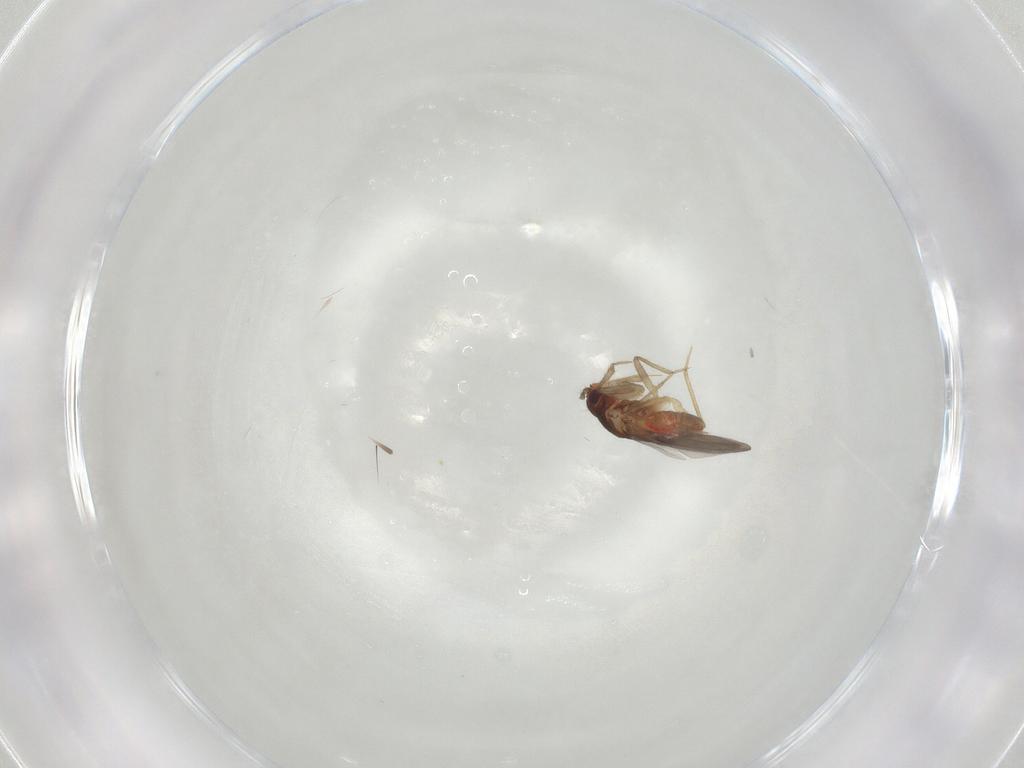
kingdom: Animalia
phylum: Arthropoda
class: Insecta
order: Hemiptera
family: Ceratocombidae
